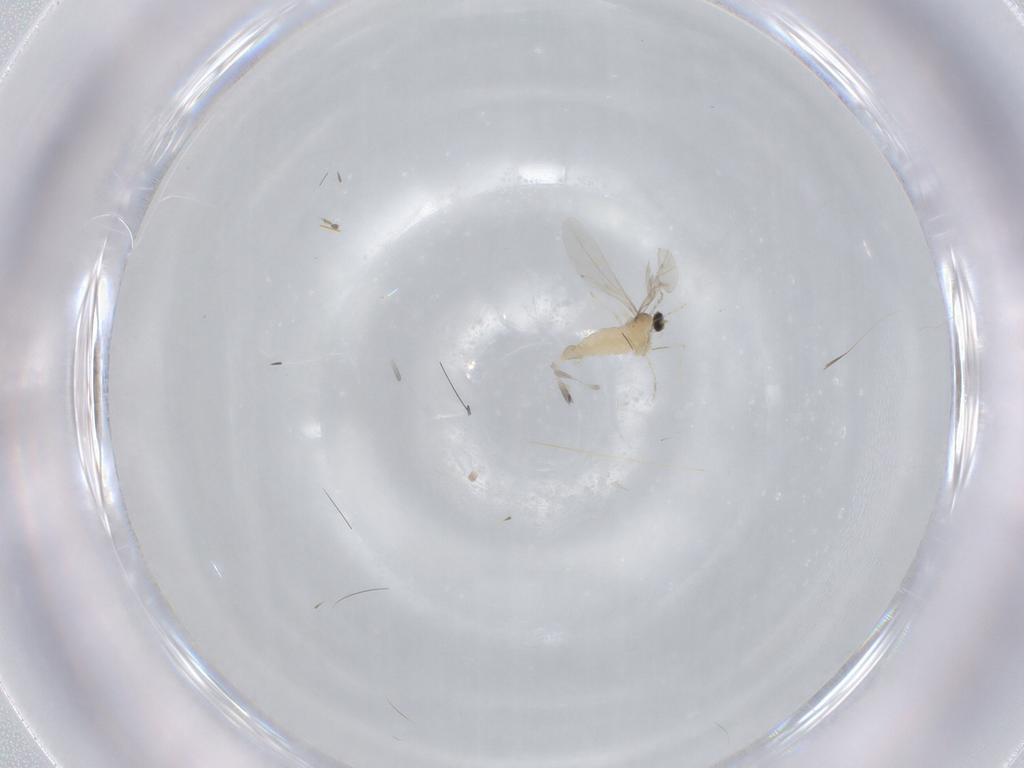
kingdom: Animalia
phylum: Arthropoda
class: Insecta
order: Diptera
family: Cecidomyiidae
